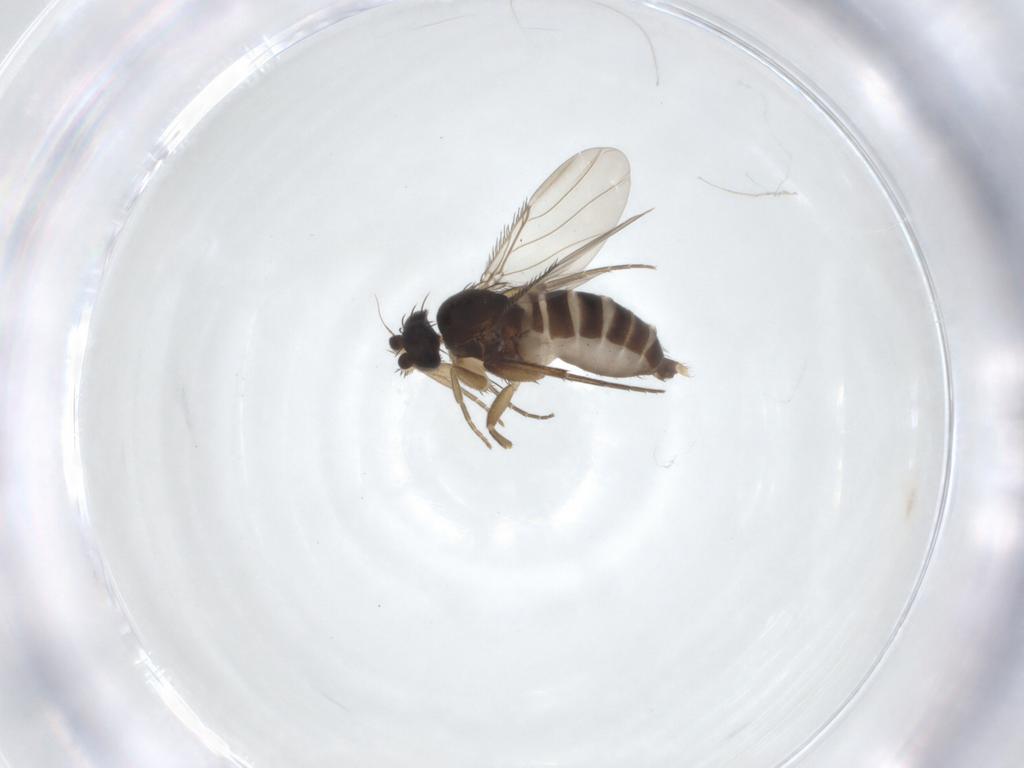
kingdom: Animalia
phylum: Arthropoda
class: Insecta
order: Diptera
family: Phoridae
